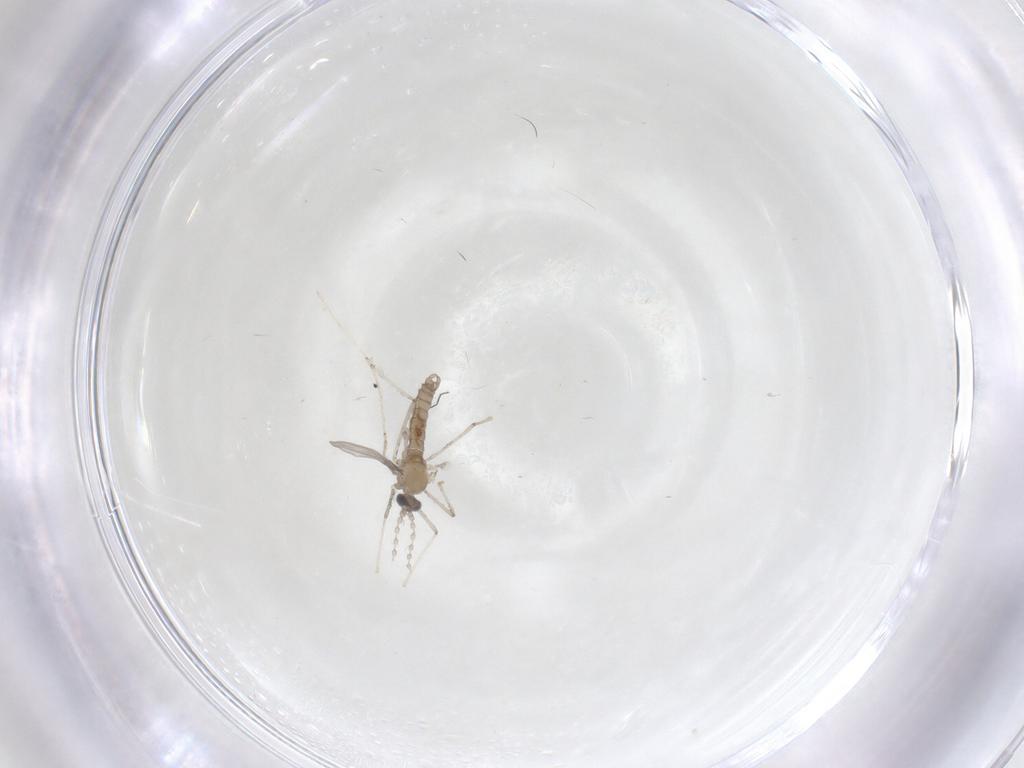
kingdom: Animalia
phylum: Arthropoda
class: Insecta
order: Diptera
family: Cecidomyiidae
